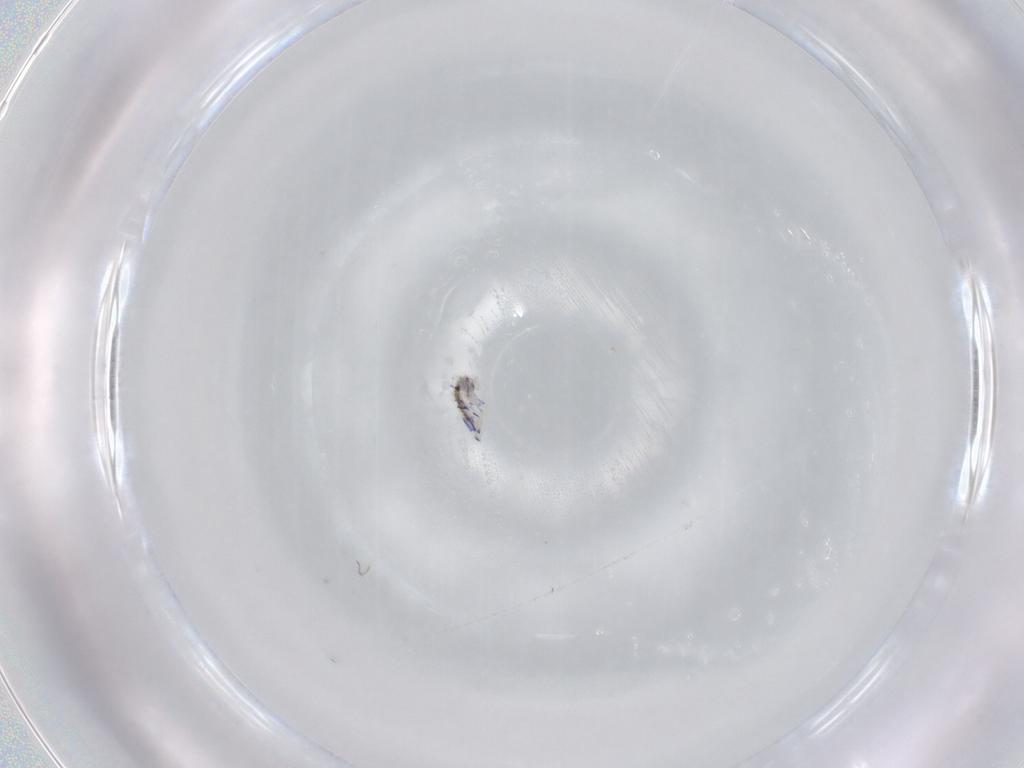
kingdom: Animalia
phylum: Arthropoda
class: Collembola
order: Entomobryomorpha
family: Entomobryidae
